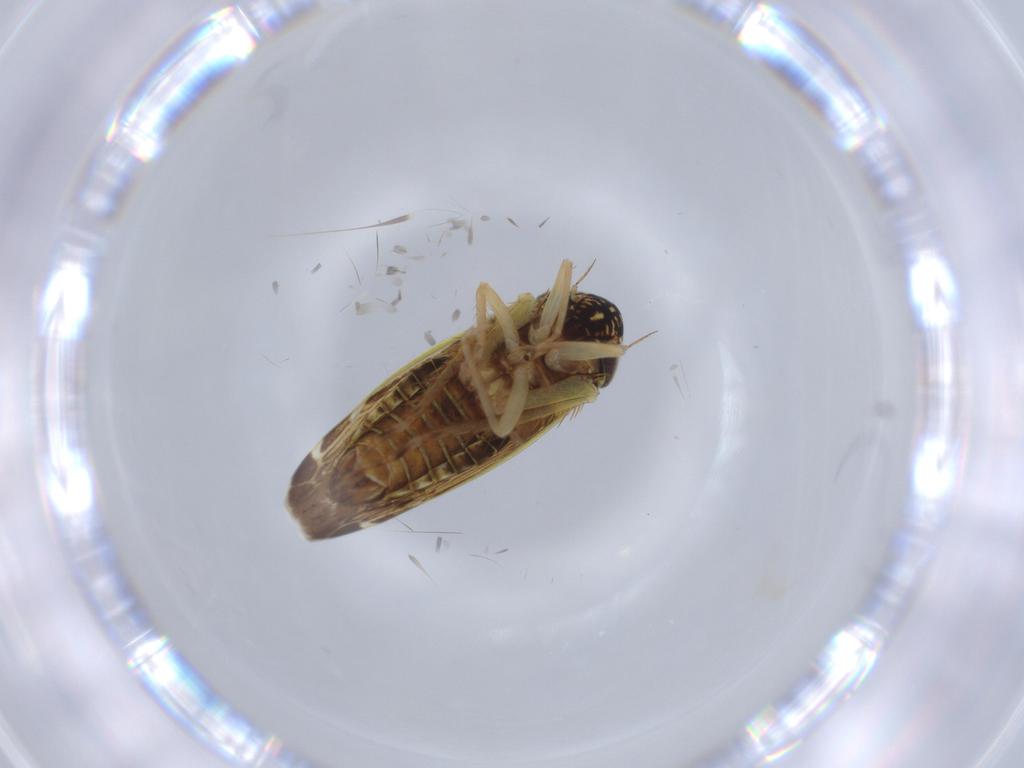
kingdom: Animalia
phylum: Arthropoda
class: Insecta
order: Hemiptera
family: Cicadellidae
